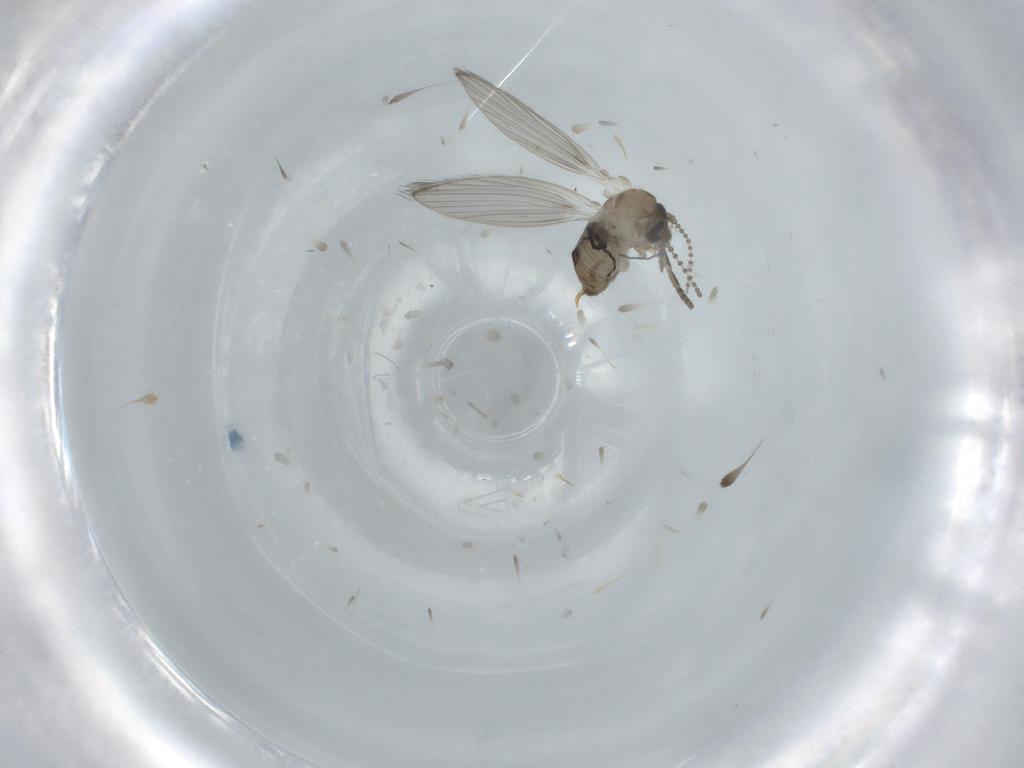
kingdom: Animalia
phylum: Arthropoda
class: Insecta
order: Diptera
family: Psychodidae
